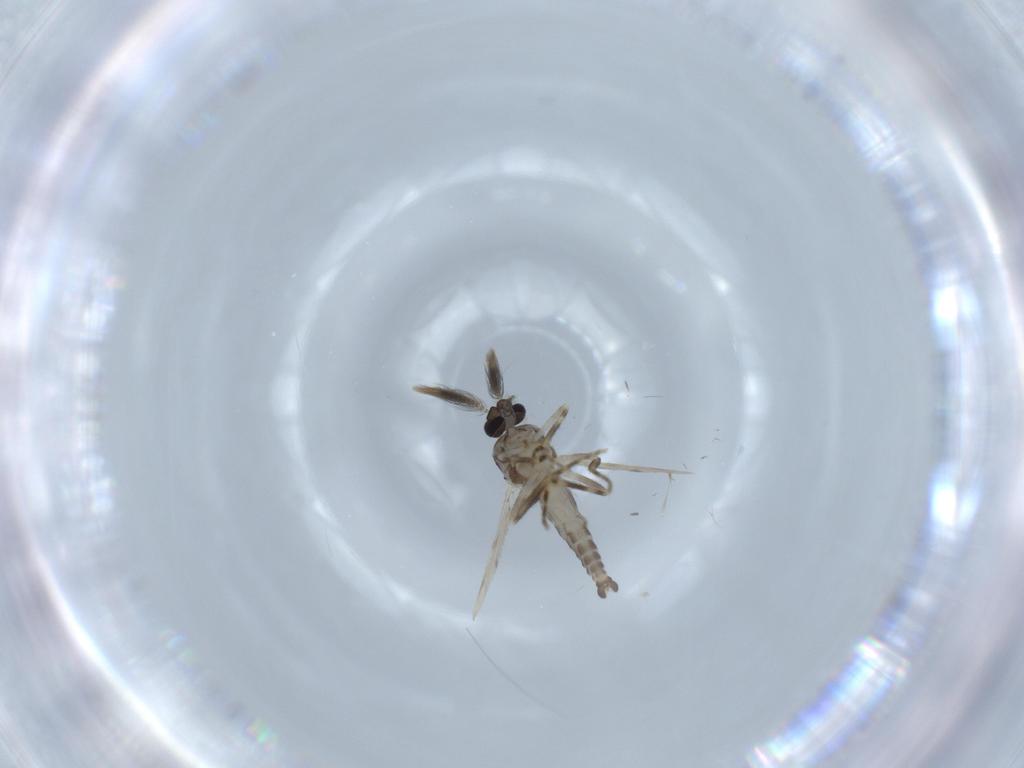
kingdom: Animalia
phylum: Arthropoda
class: Insecta
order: Diptera
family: Ceratopogonidae
